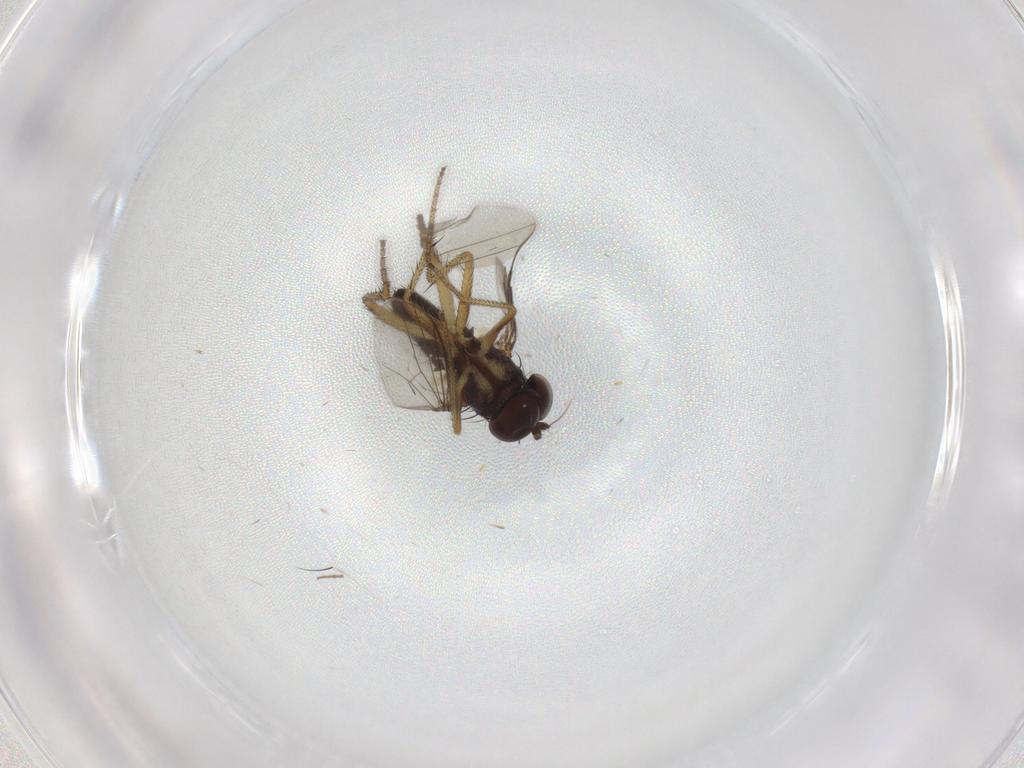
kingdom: Animalia
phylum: Arthropoda
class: Insecta
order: Diptera
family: Dolichopodidae
